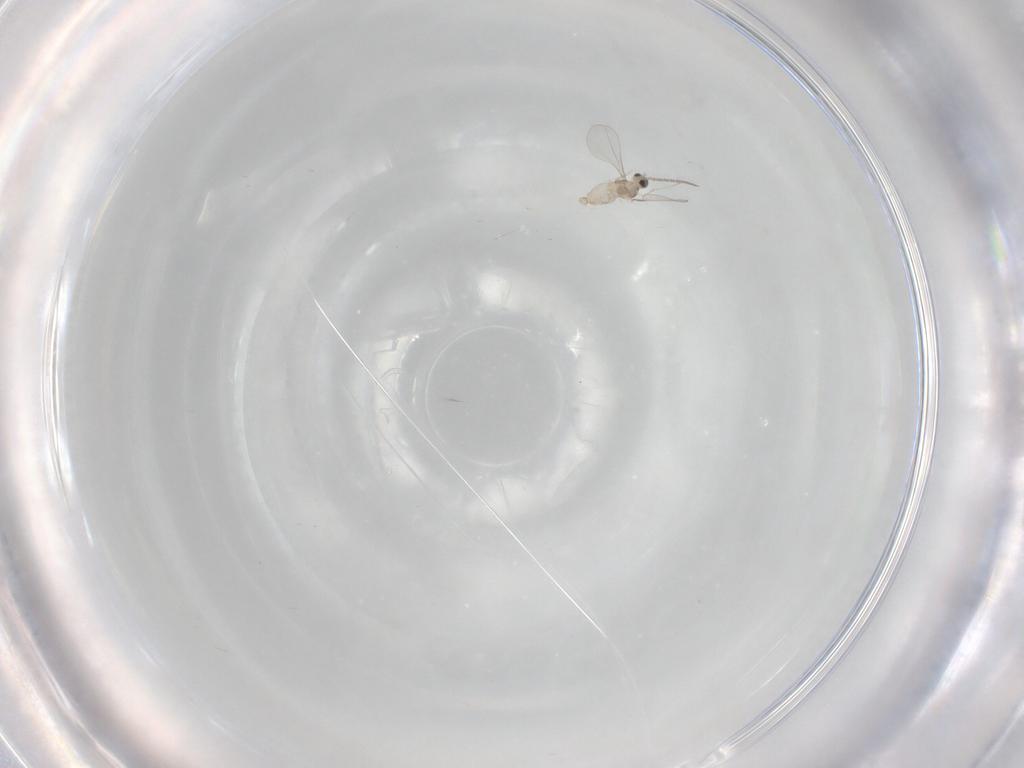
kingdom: Animalia
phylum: Arthropoda
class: Insecta
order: Diptera
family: Cecidomyiidae
